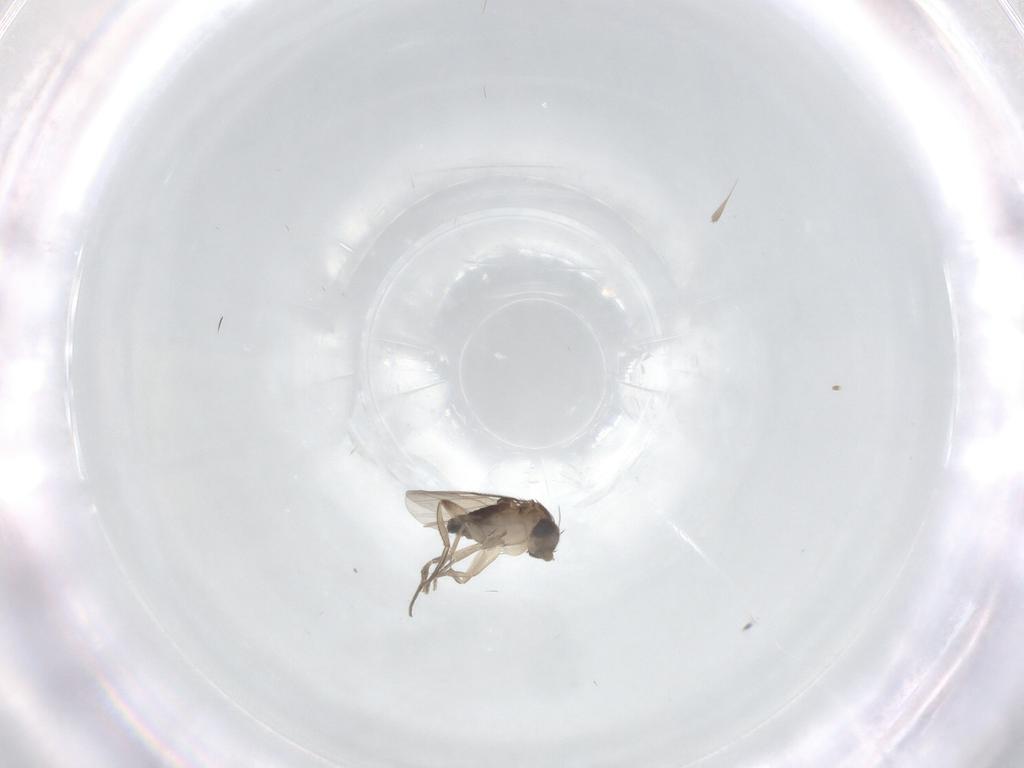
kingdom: Animalia
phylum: Arthropoda
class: Insecta
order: Diptera
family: Phoridae
